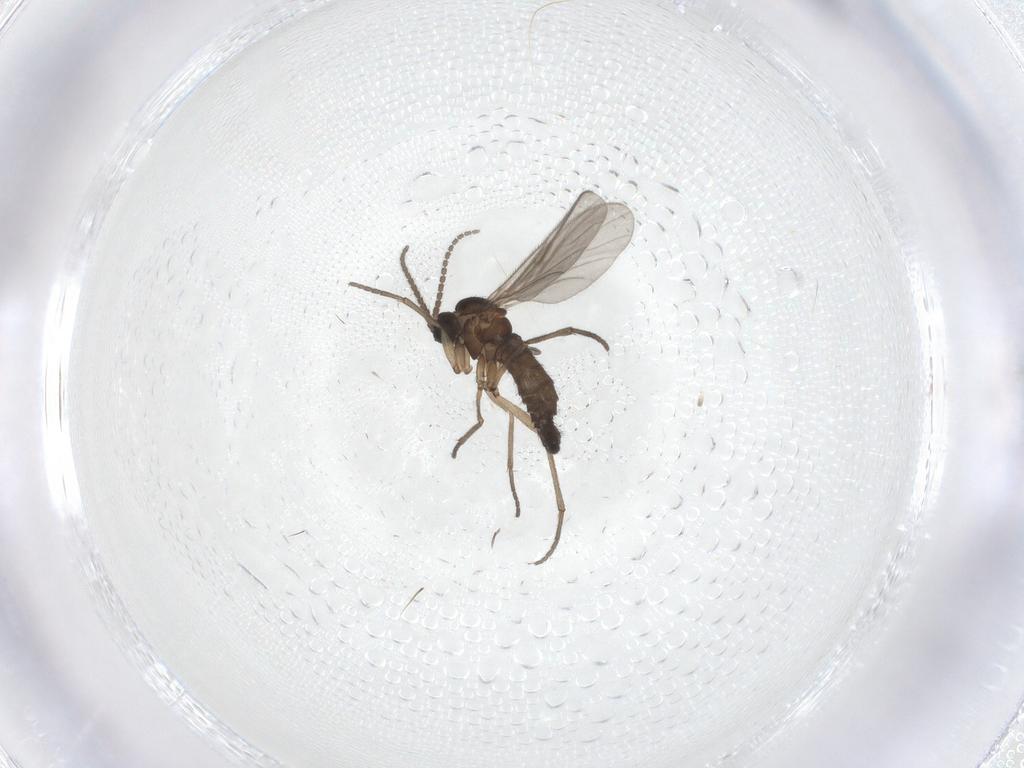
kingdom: Animalia
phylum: Arthropoda
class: Insecta
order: Diptera
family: Sciaridae
